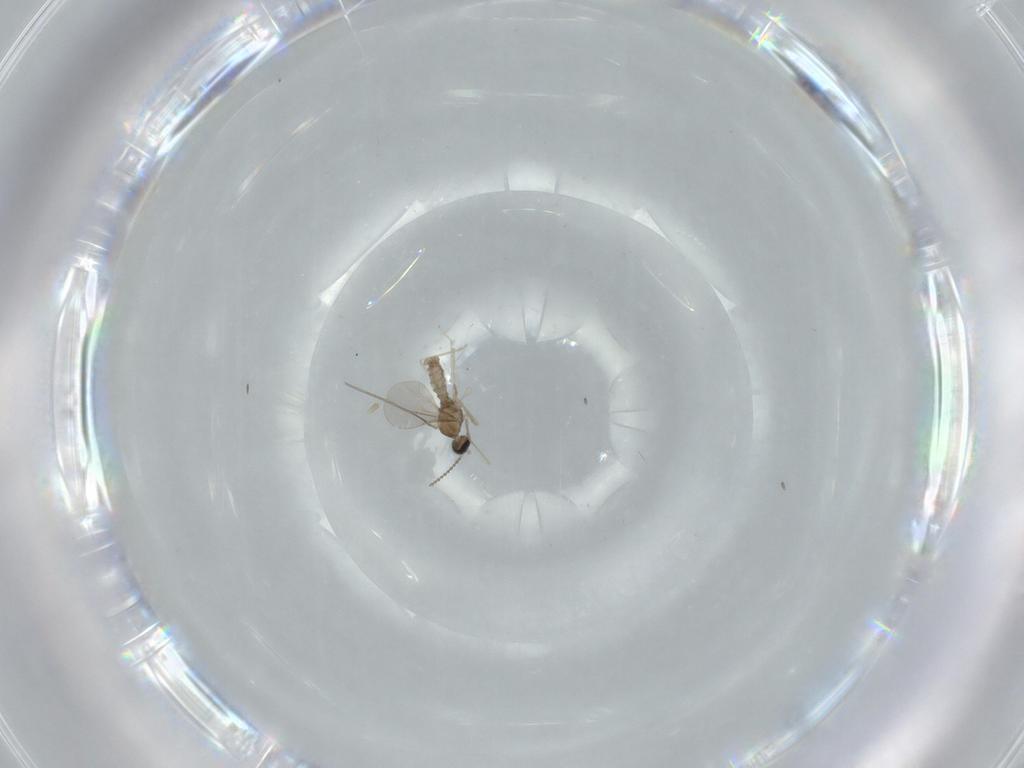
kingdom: Animalia
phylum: Arthropoda
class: Insecta
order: Diptera
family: Cecidomyiidae
